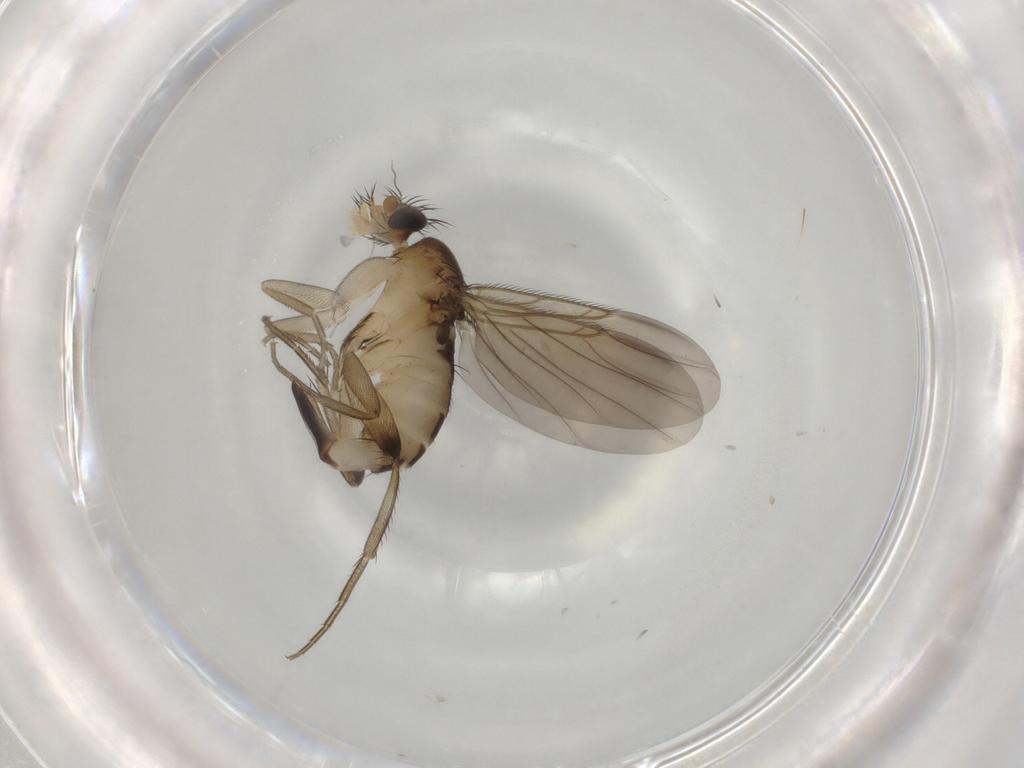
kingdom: Animalia
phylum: Arthropoda
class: Insecta
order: Diptera
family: Phoridae
